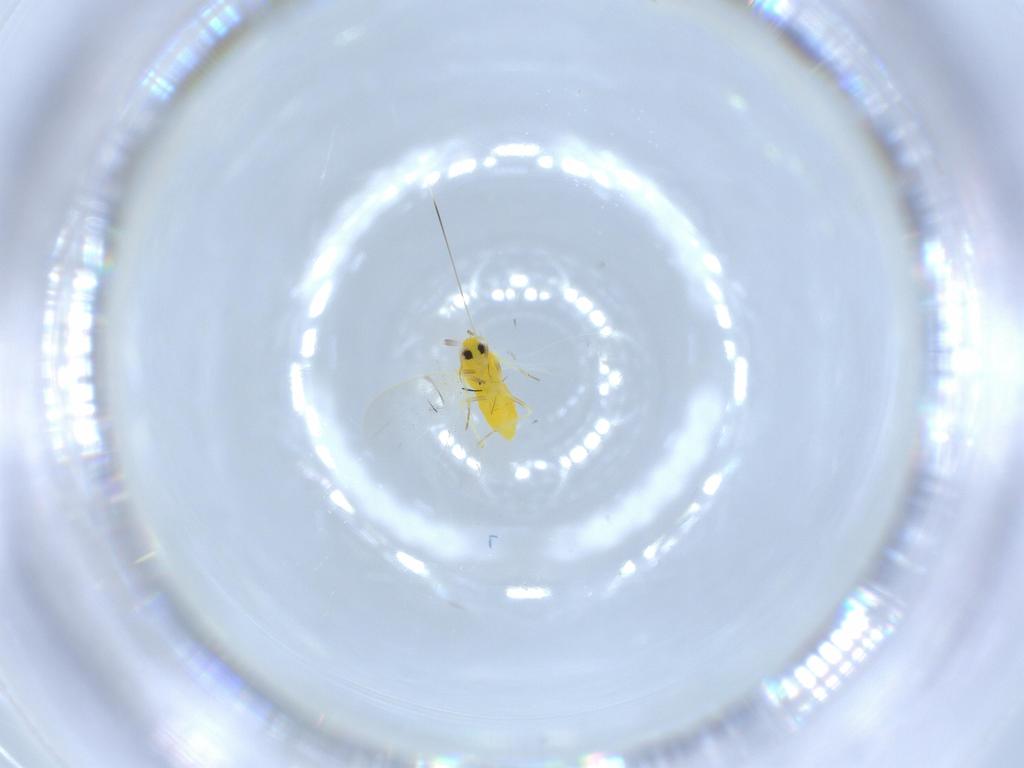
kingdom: Animalia
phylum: Arthropoda
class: Insecta
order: Hemiptera
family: Aleyrodidae
